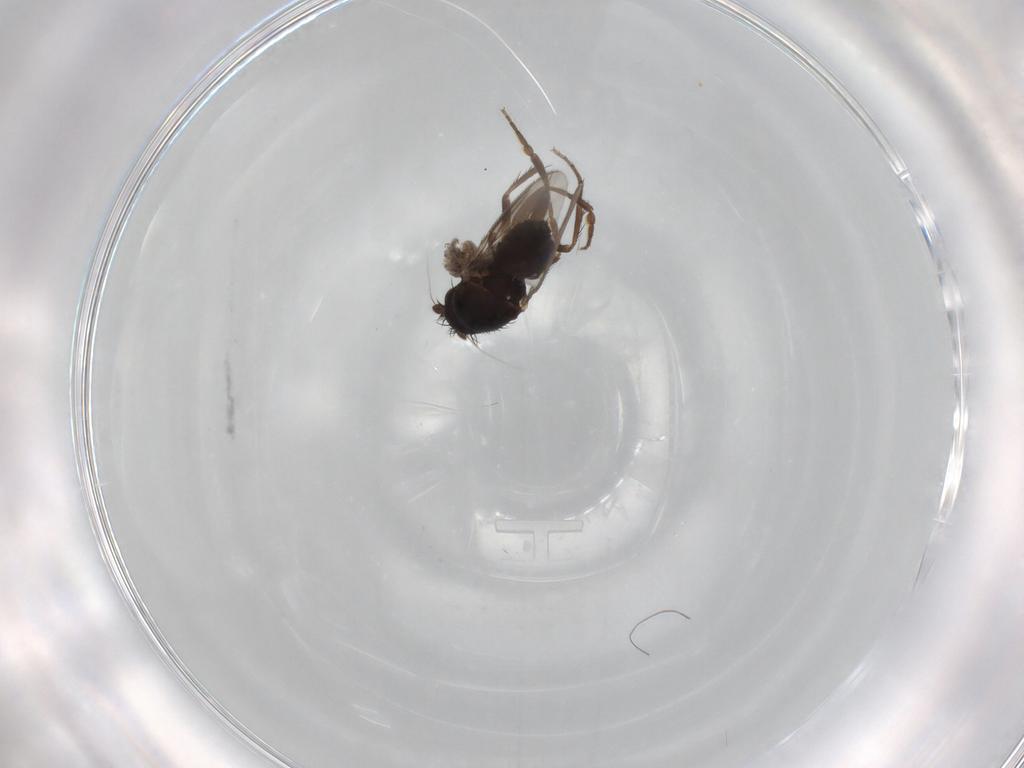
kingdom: Animalia
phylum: Arthropoda
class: Insecta
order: Diptera
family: Sphaeroceridae
